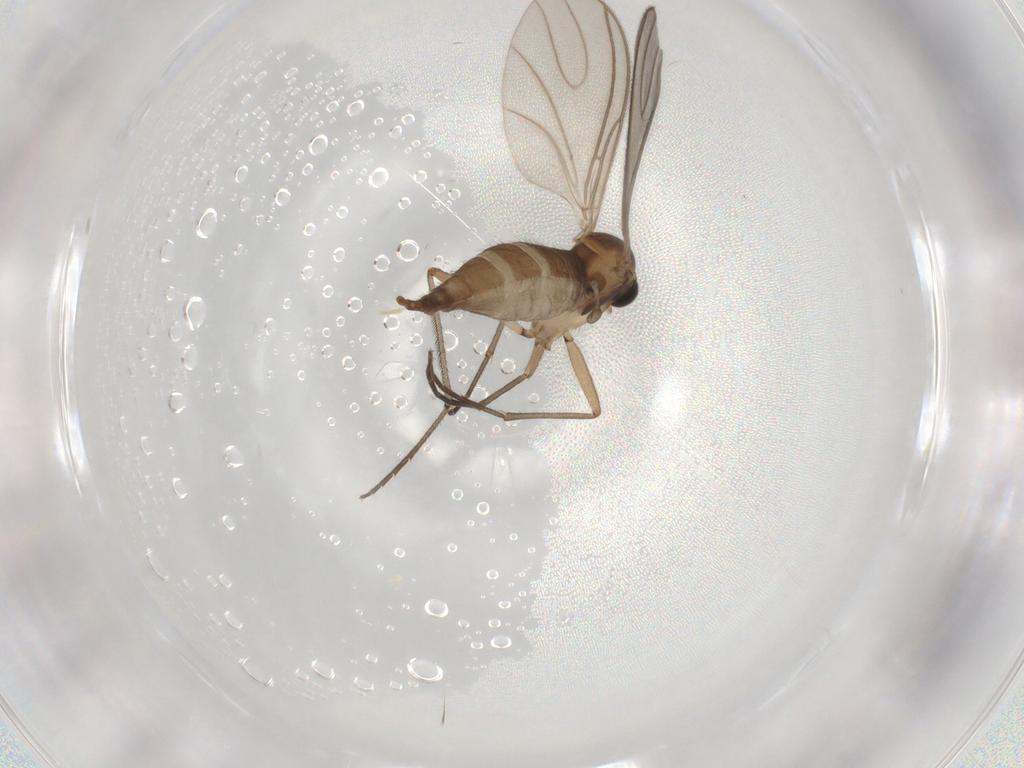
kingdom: Animalia
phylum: Arthropoda
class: Insecta
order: Diptera
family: Sciaridae
